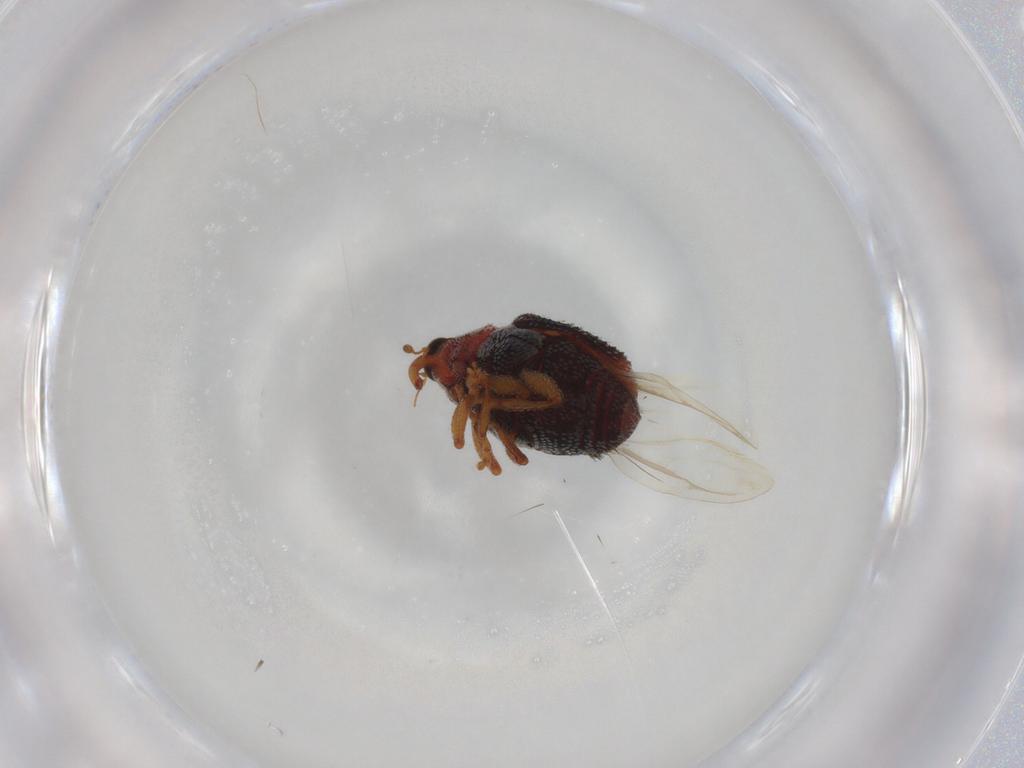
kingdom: Animalia
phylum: Arthropoda
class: Insecta
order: Coleoptera
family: Curculionidae
